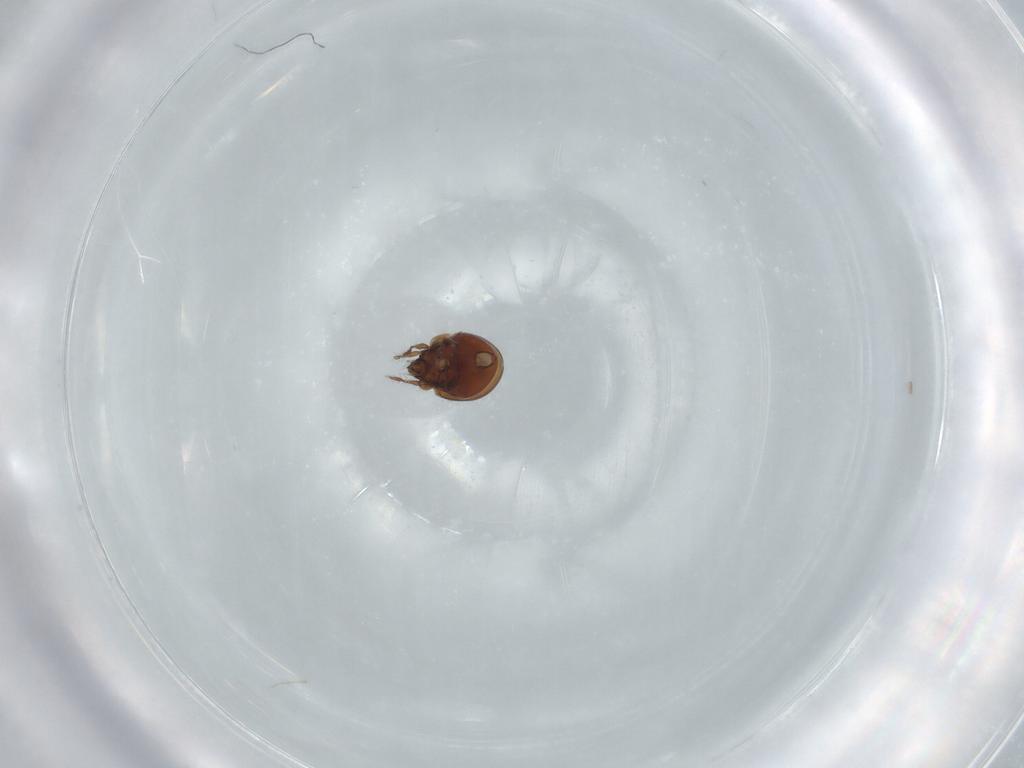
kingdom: Animalia
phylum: Arthropoda
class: Arachnida
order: Sarcoptiformes
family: Mochlozetidae
